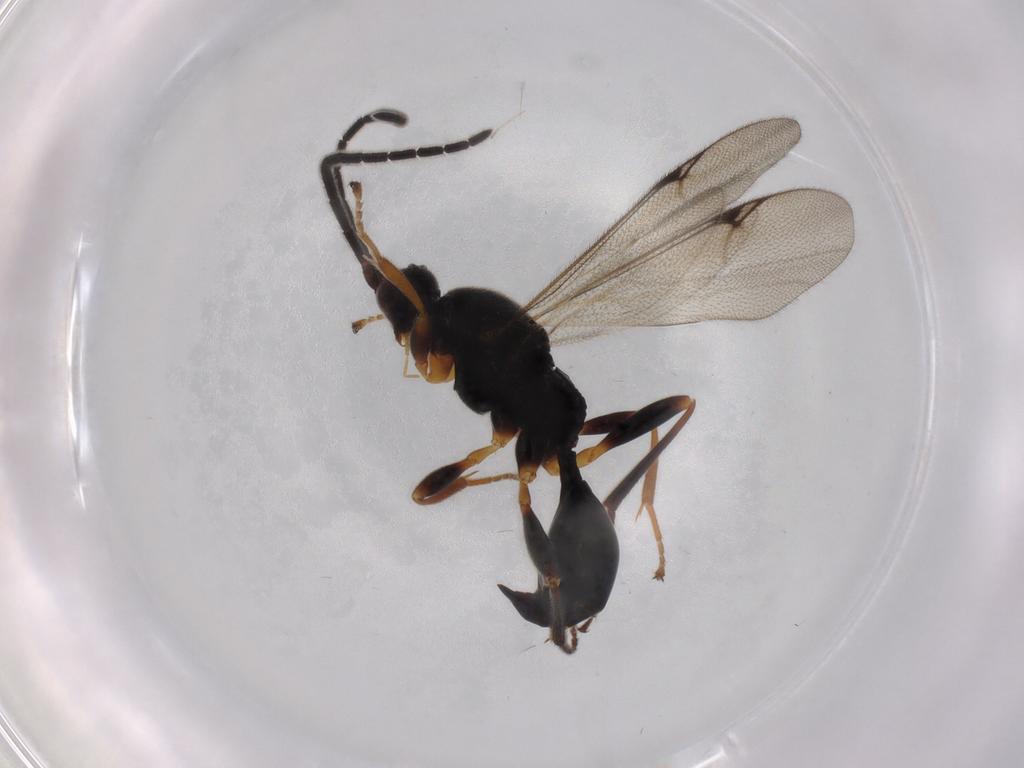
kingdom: Animalia
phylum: Arthropoda
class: Insecta
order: Hymenoptera
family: Proctotrupidae
